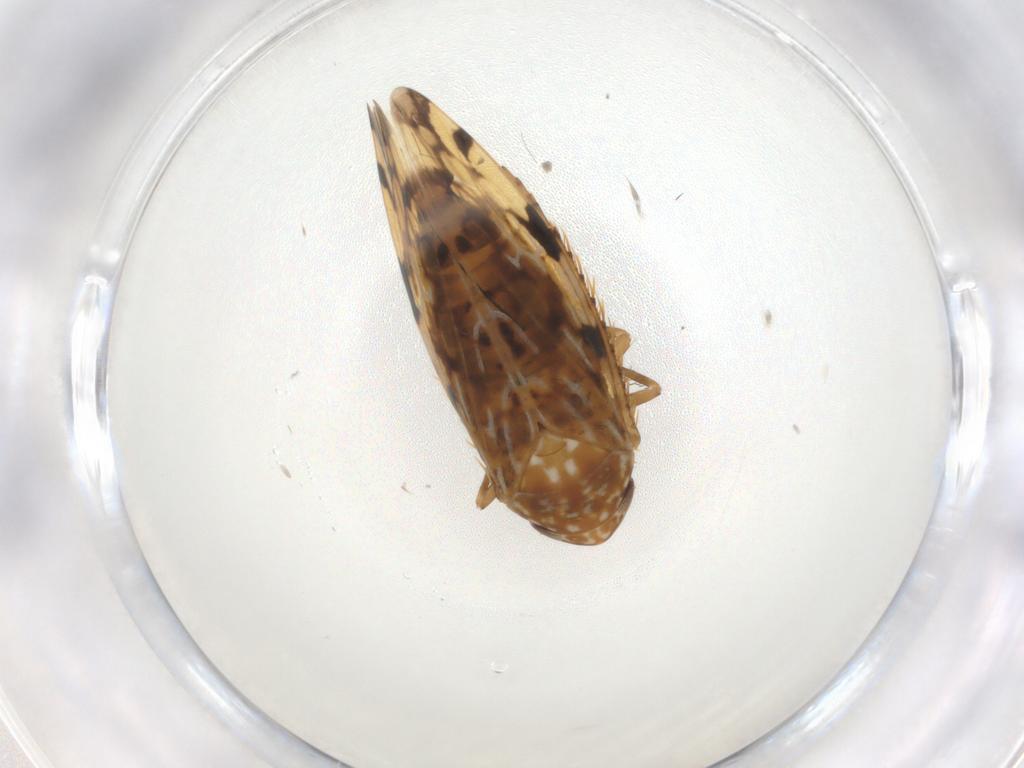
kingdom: Animalia
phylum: Arthropoda
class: Insecta
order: Hemiptera
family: Cicadellidae
